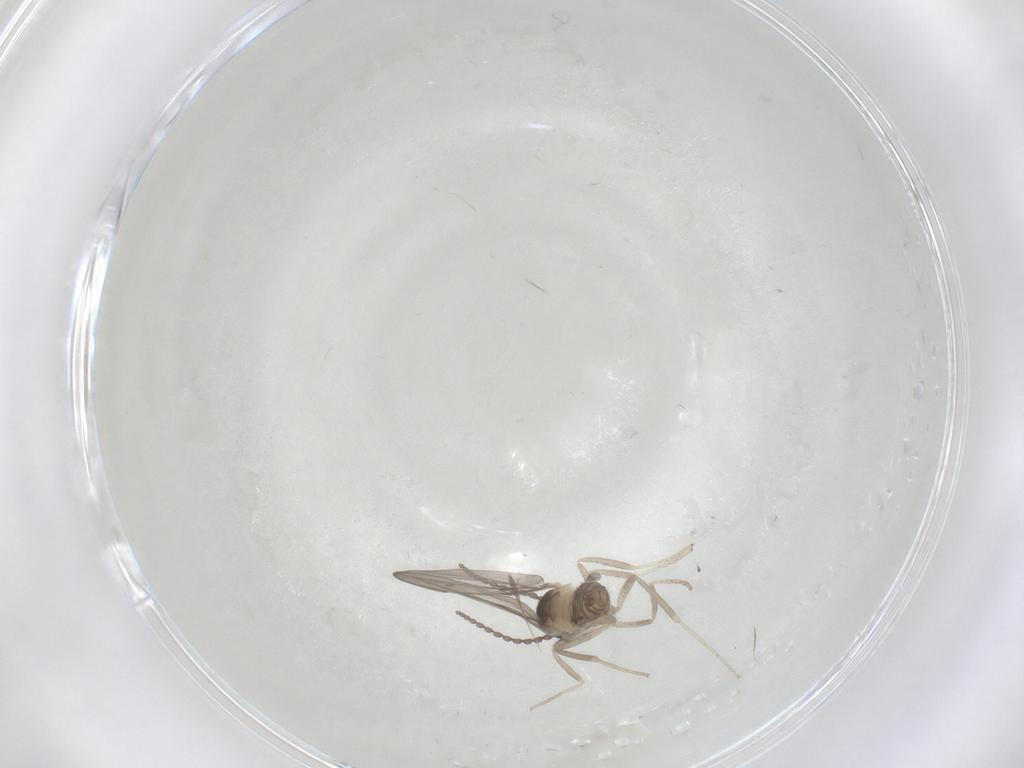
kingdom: Animalia
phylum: Arthropoda
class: Insecta
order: Diptera
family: Cecidomyiidae
